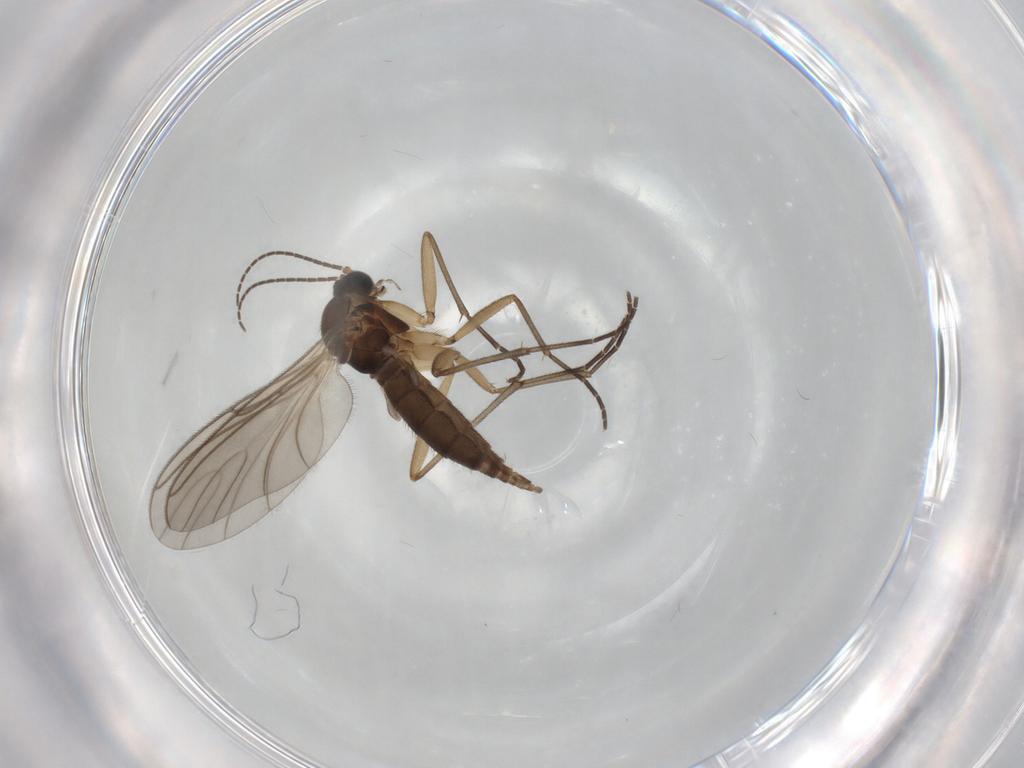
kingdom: Animalia
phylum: Arthropoda
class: Insecta
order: Diptera
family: Sciaridae
